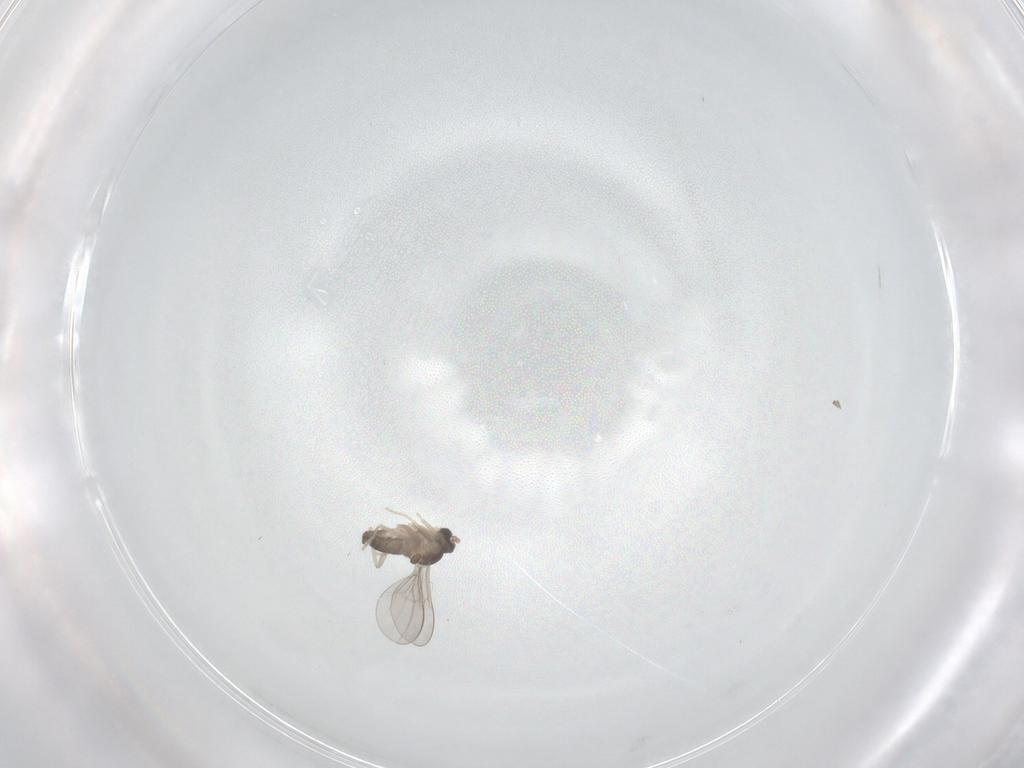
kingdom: Animalia
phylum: Arthropoda
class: Insecta
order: Diptera
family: Cecidomyiidae
